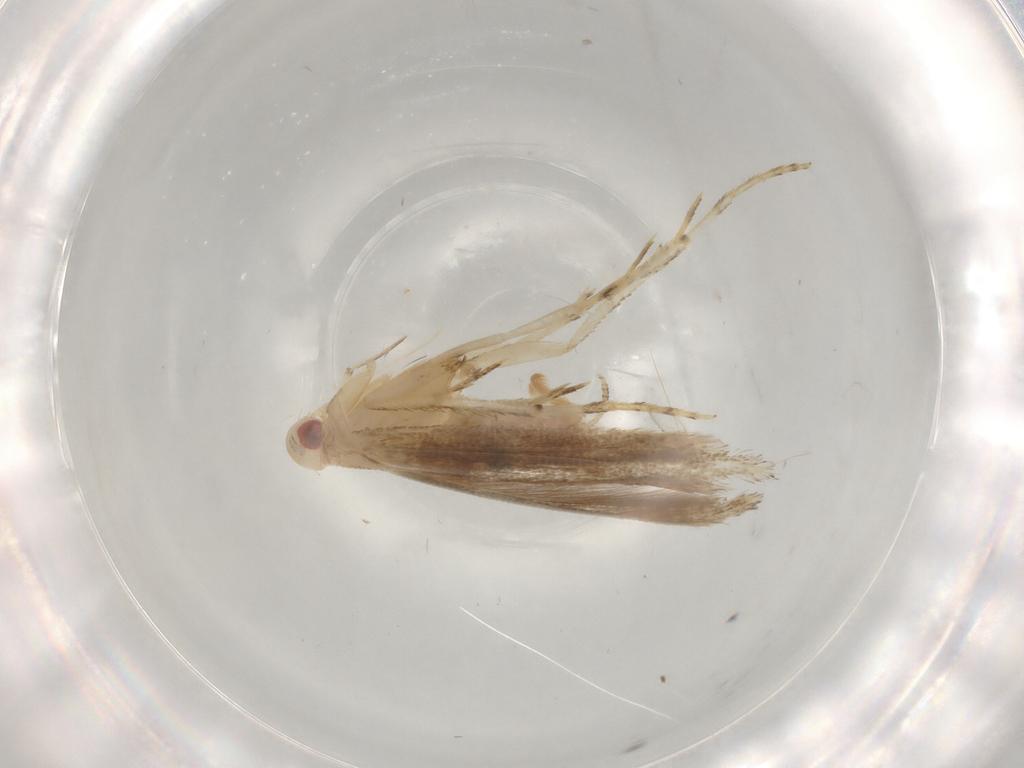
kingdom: Animalia
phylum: Arthropoda
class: Insecta
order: Lepidoptera
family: Erebidae
